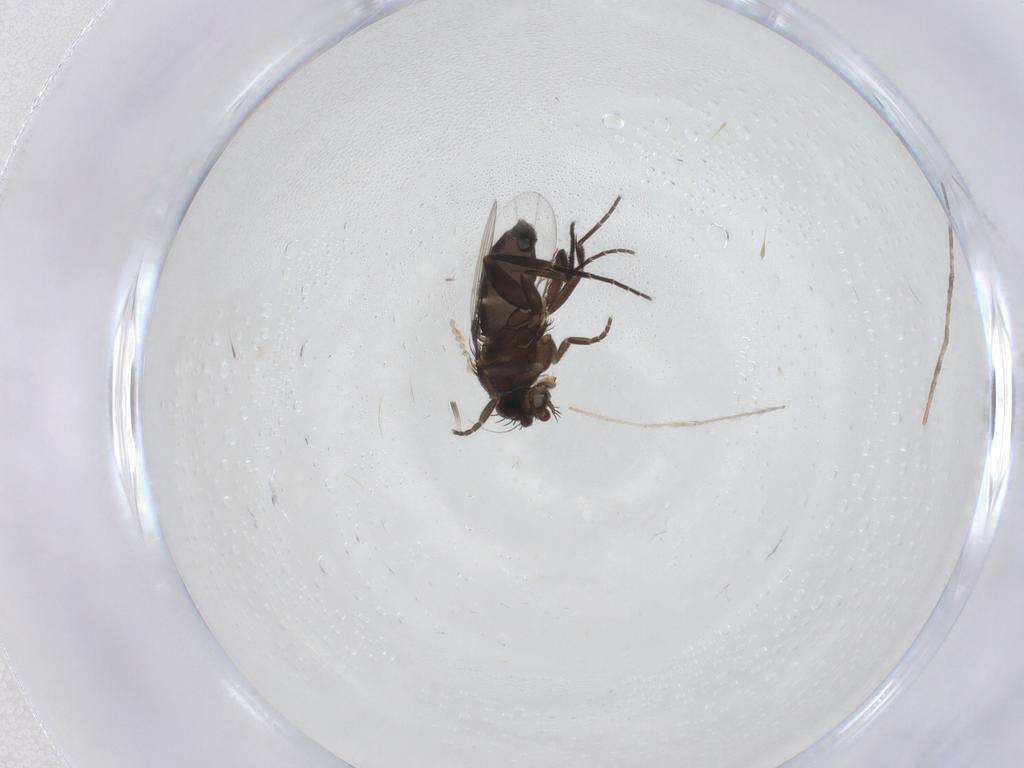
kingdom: Animalia
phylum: Arthropoda
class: Insecta
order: Diptera
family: Phoridae
